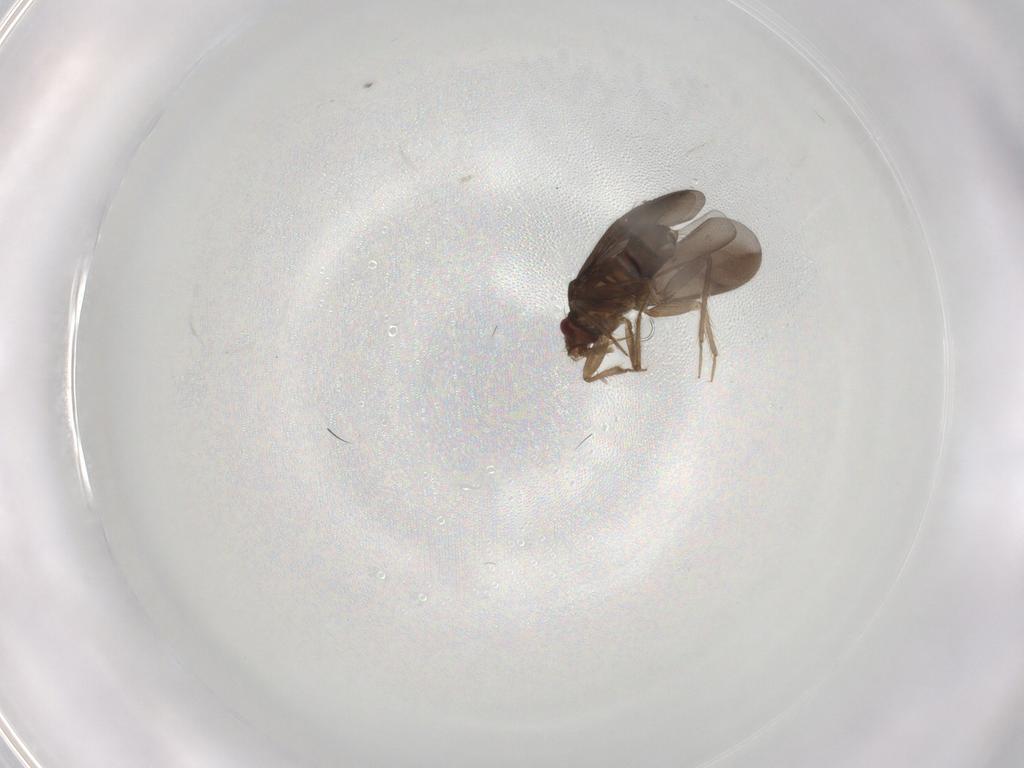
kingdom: Animalia
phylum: Arthropoda
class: Insecta
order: Hemiptera
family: Ceratocombidae
